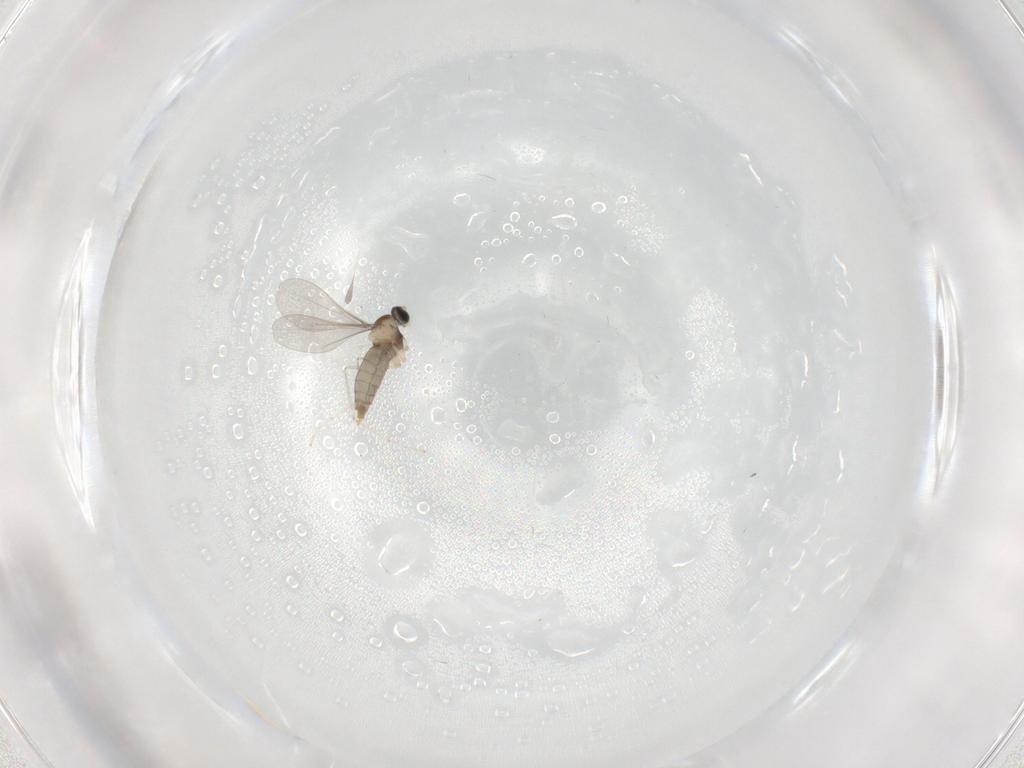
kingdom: Animalia
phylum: Arthropoda
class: Insecta
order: Diptera
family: Cecidomyiidae
